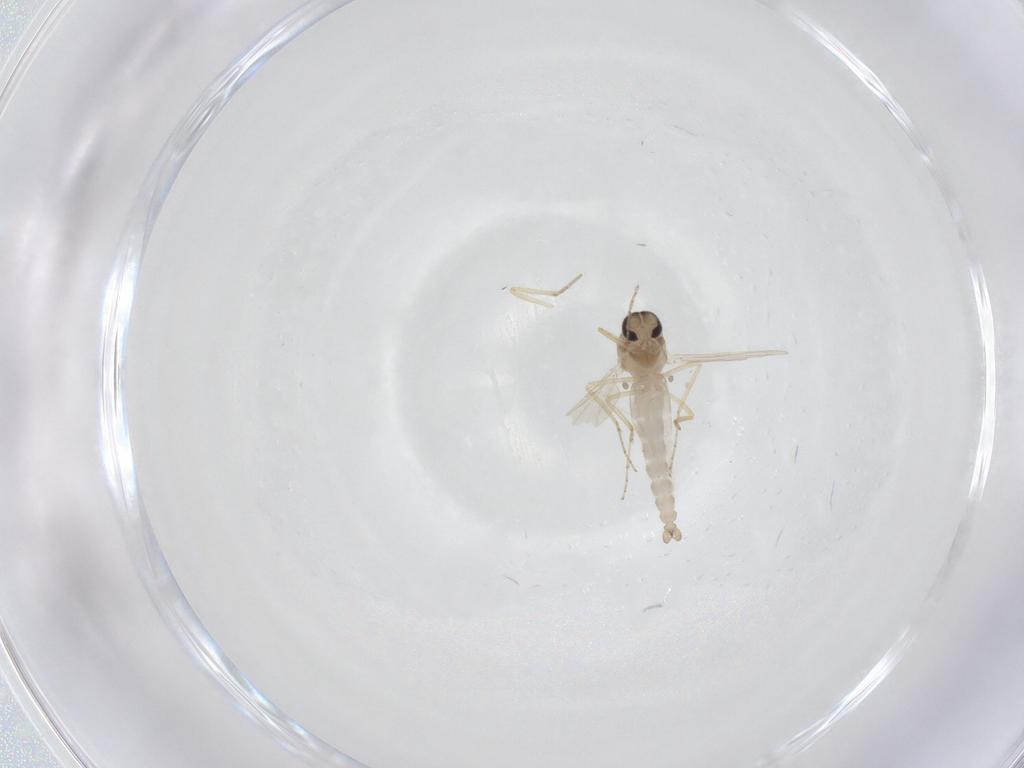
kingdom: Animalia
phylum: Arthropoda
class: Insecta
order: Diptera
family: Ceratopogonidae
